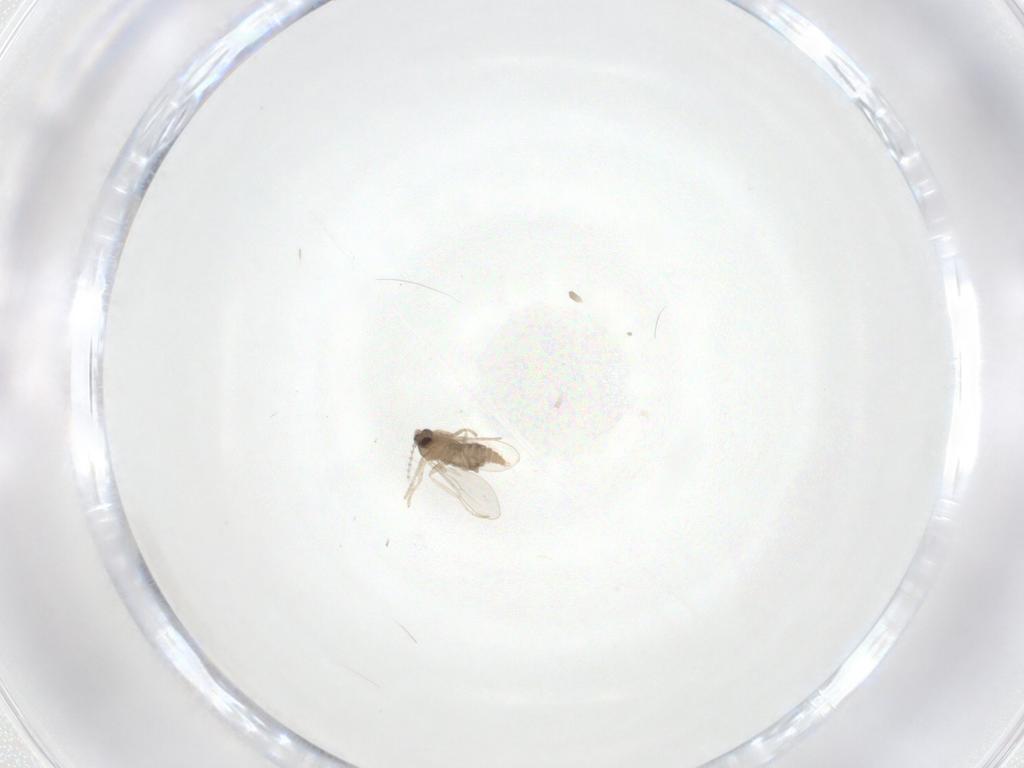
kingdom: Animalia
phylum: Arthropoda
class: Insecta
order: Diptera
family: Cecidomyiidae
